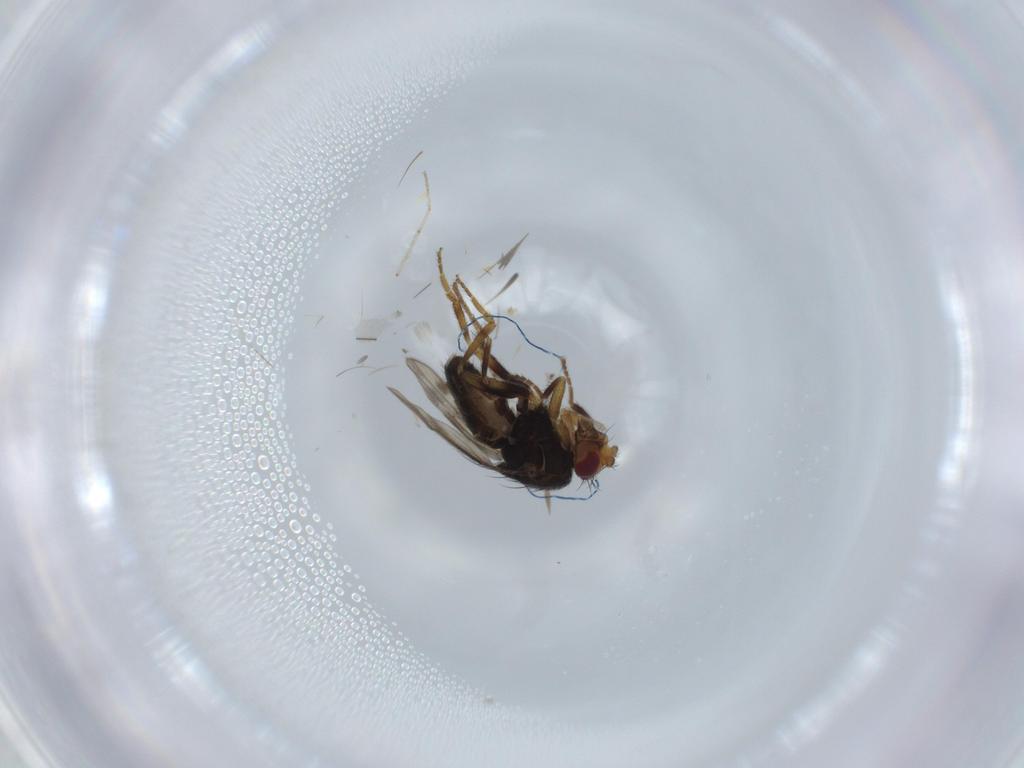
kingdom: Animalia
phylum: Arthropoda
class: Insecta
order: Diptera
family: Sphaeroceridae
